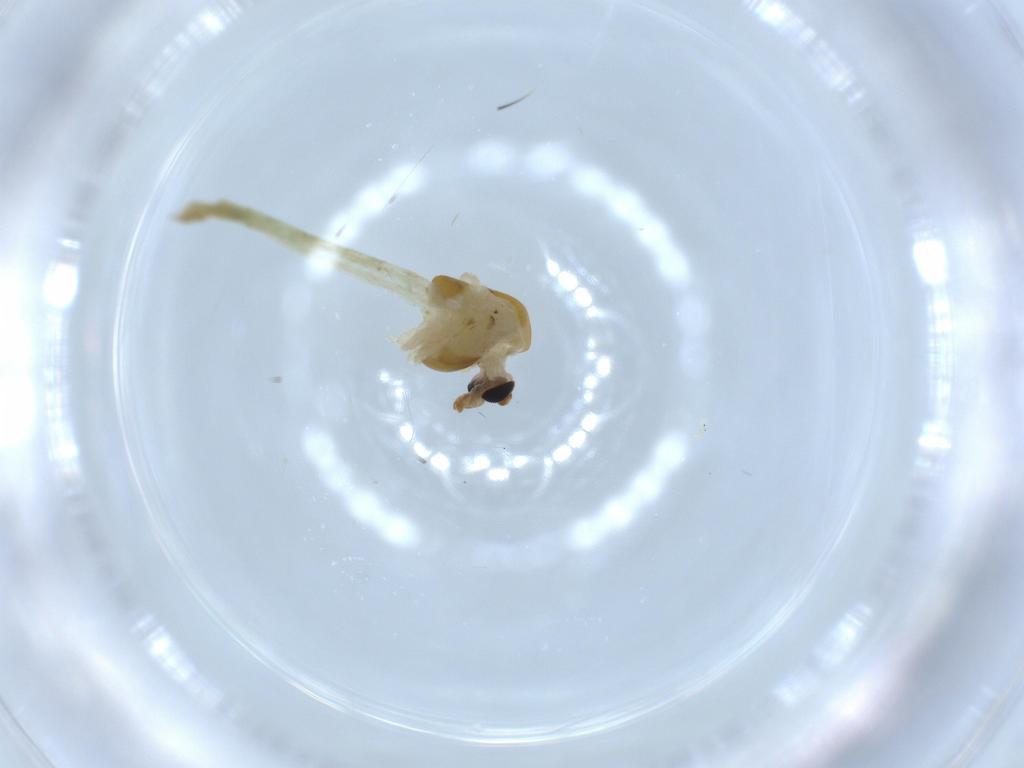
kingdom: Animalia
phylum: Arthropoda
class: Insecta
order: Diptera
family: Chironomidae
